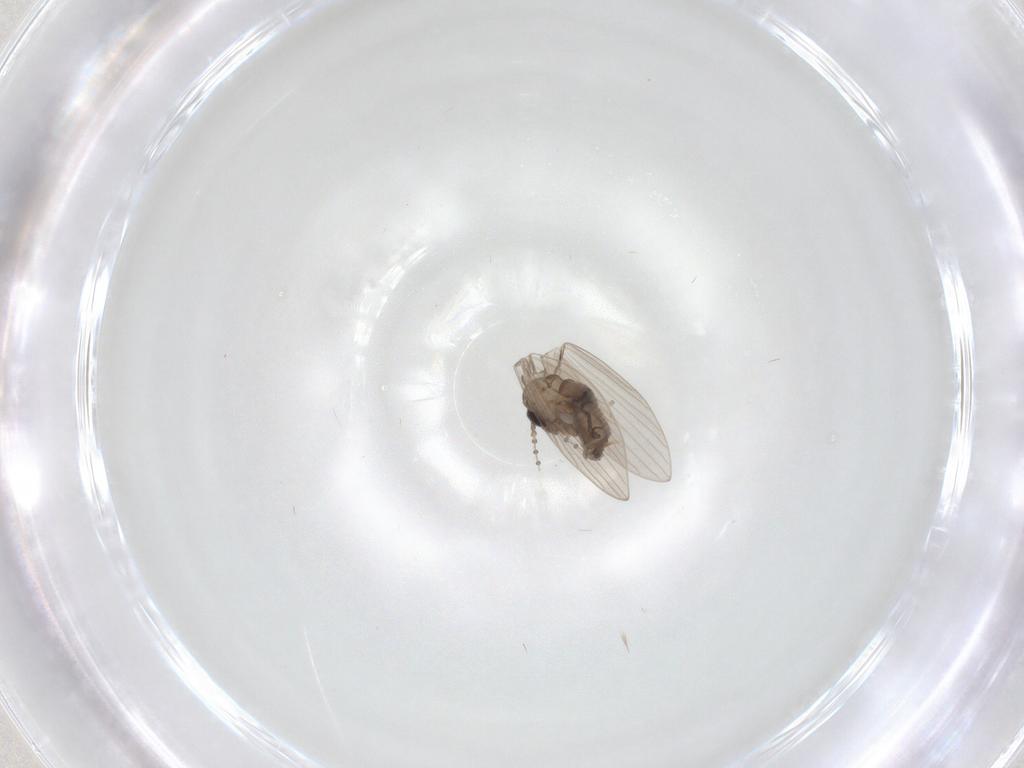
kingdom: Animalia
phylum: Arthropoda
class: Insecta
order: Diptera
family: Psychodidae
